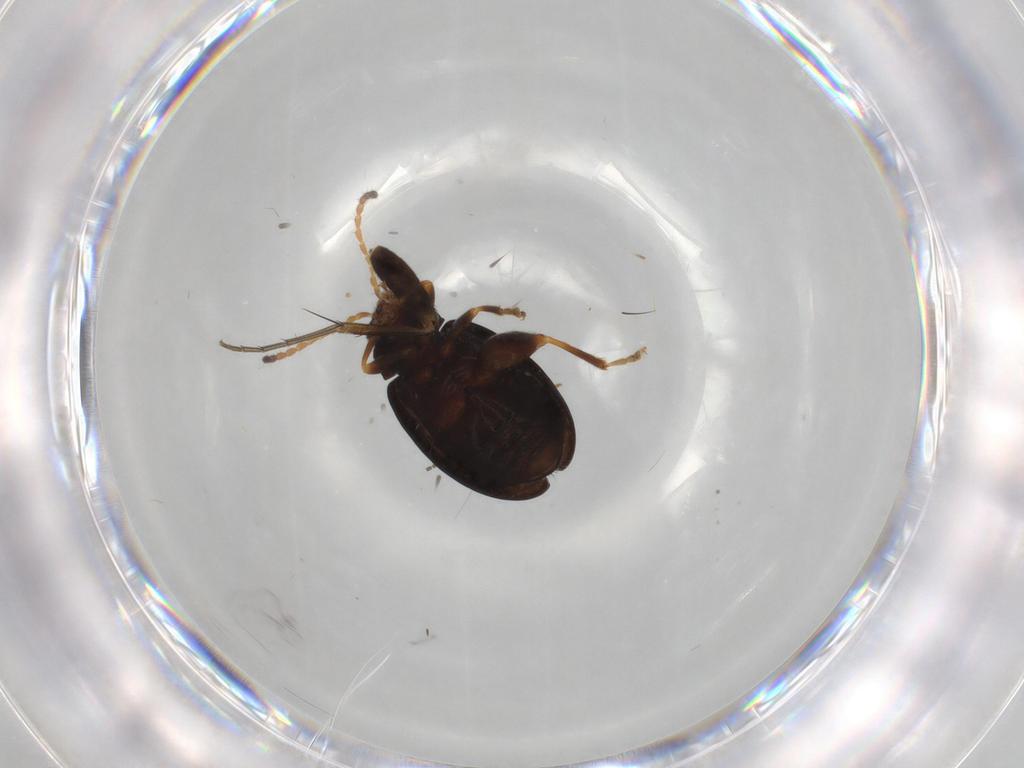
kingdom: Animalia
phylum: Arthropoda
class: Insecta
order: Coleoptera
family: Chrysomelidae
